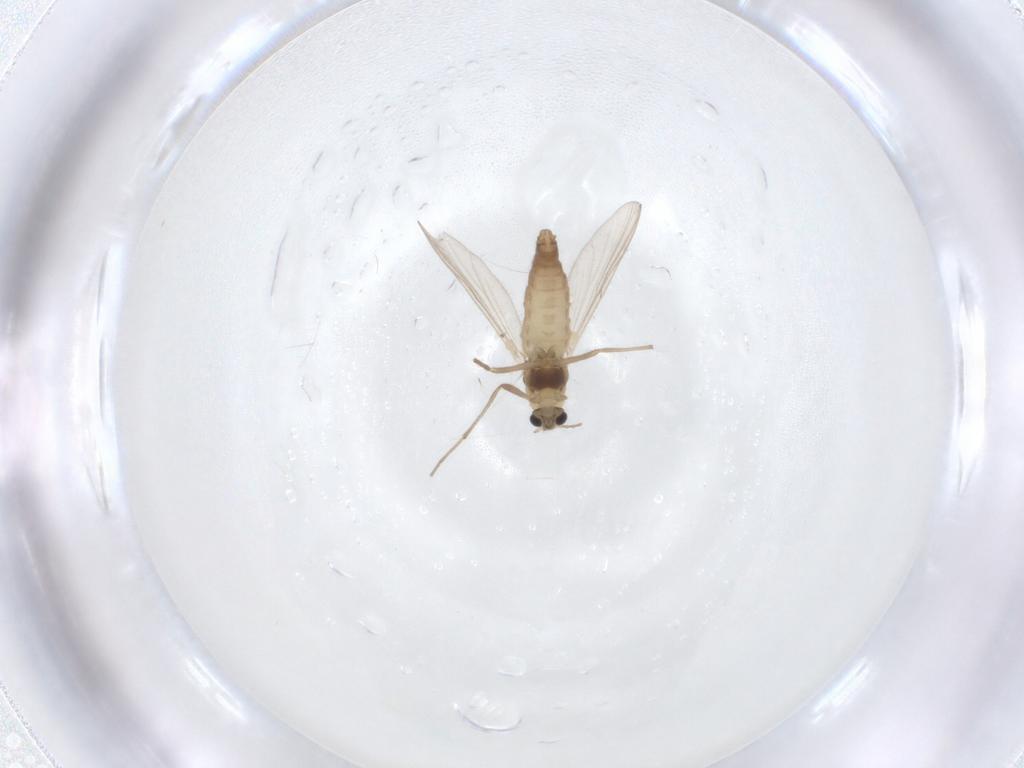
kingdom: Animalia
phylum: Arthropoda
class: Insecta
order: Diptera
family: Chironomidae
